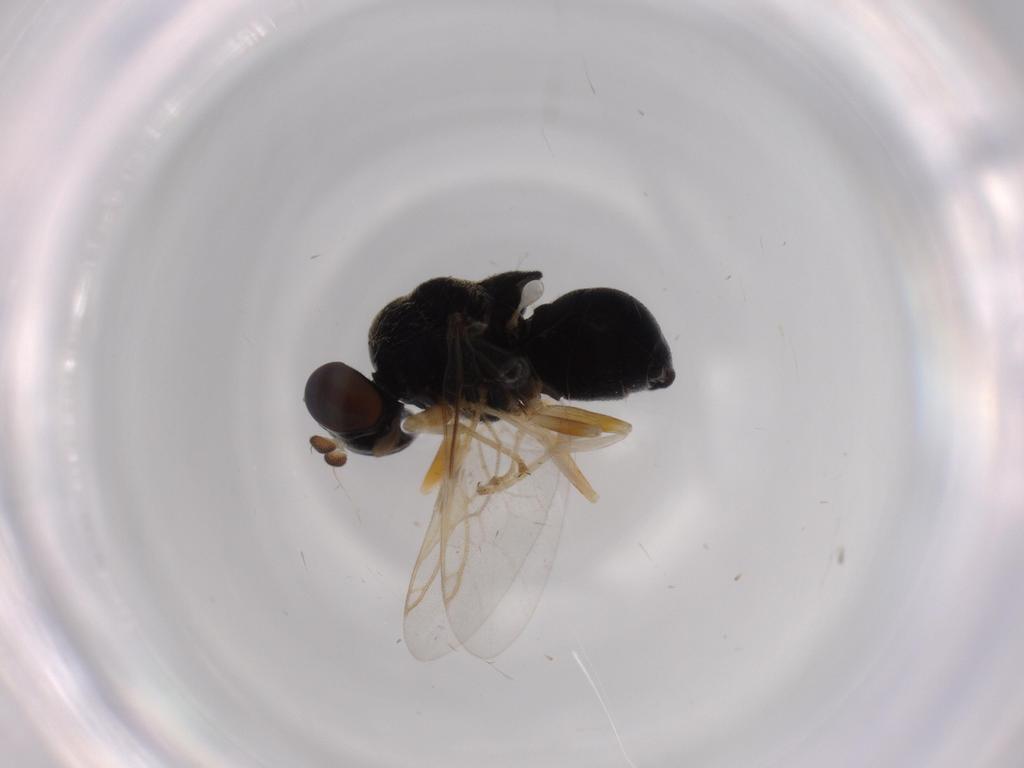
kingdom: Animalia
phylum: Arthropoda
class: Insecta
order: Diptera
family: Stratiomyidae
